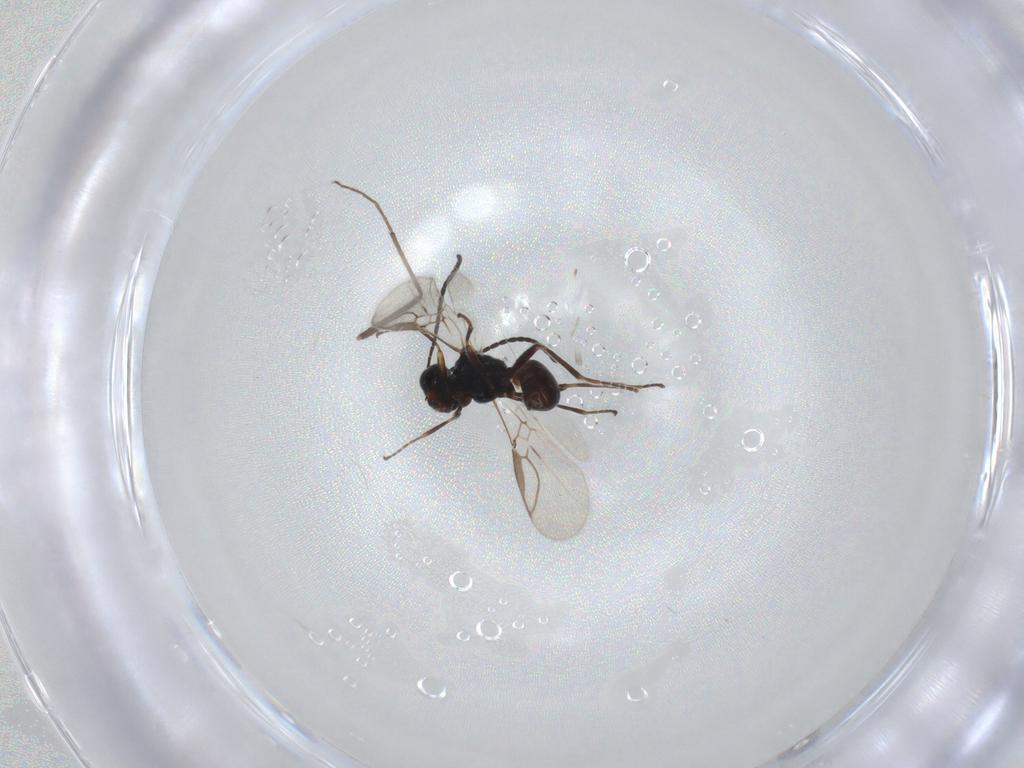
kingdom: Animalia
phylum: Arthropoda
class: Insecta
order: Hymenoptera
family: Braconidae
